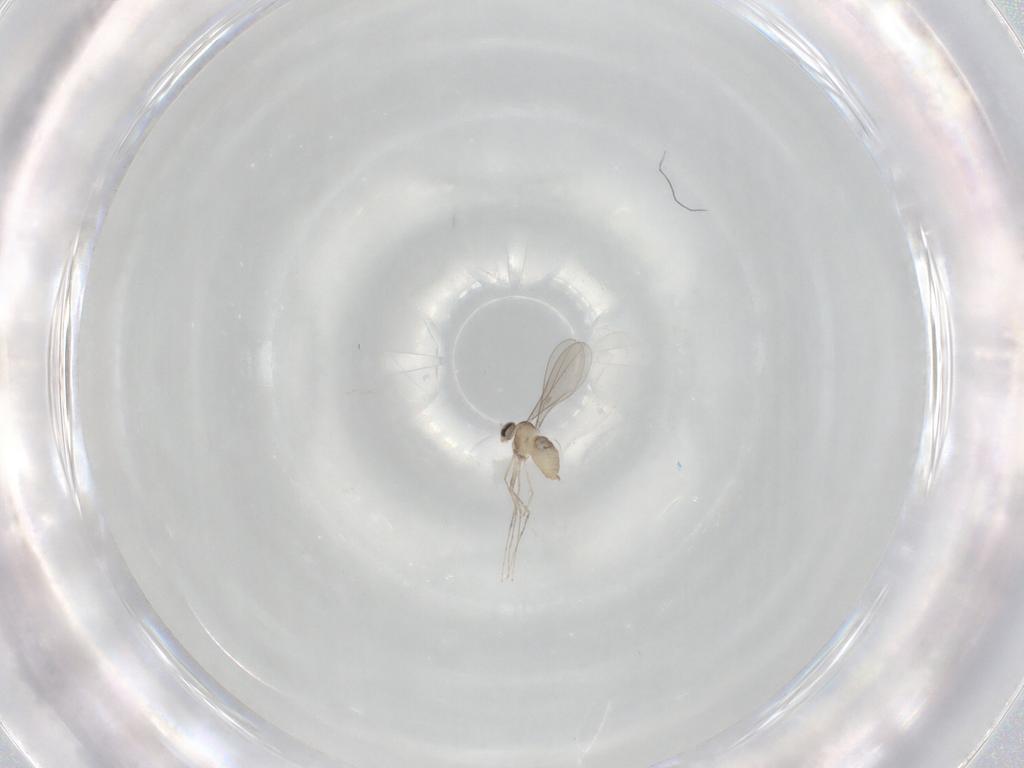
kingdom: Animalia
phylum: Arthropoda
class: Insecta
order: Diptera
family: Cecidomyiidae
